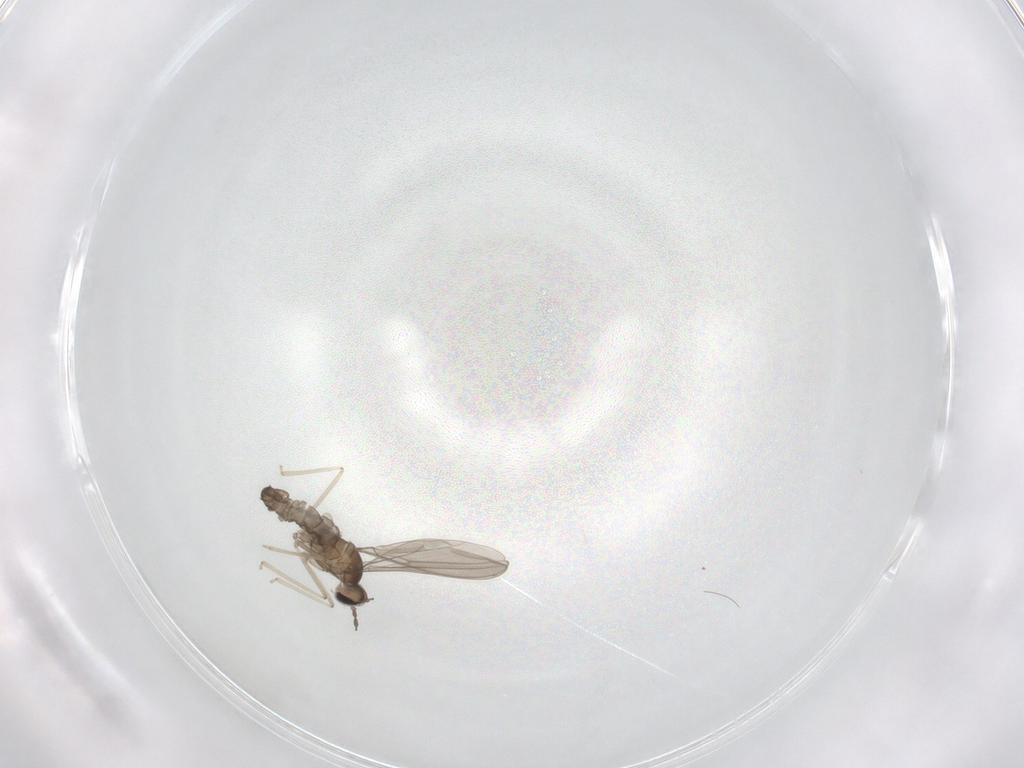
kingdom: Animalia
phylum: Arthropoda
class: Insecta
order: Diptera
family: Cecidomyiidae
